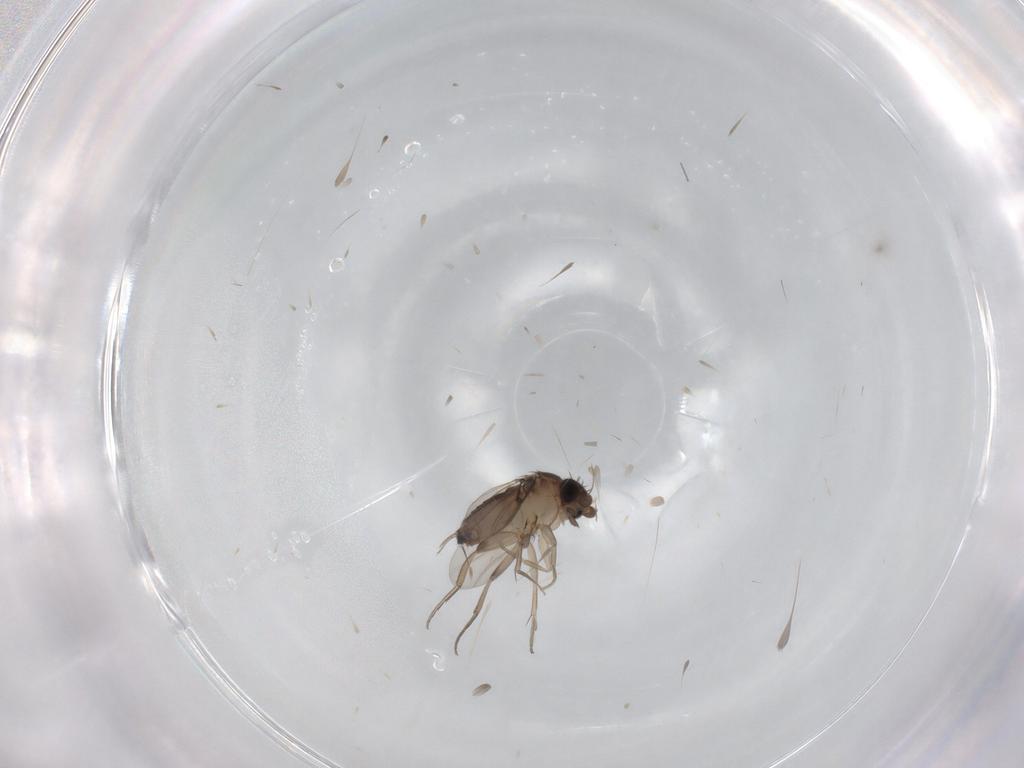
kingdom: Animalia
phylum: Arthropoda
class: Insecta
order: Diptera
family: Phoridae
